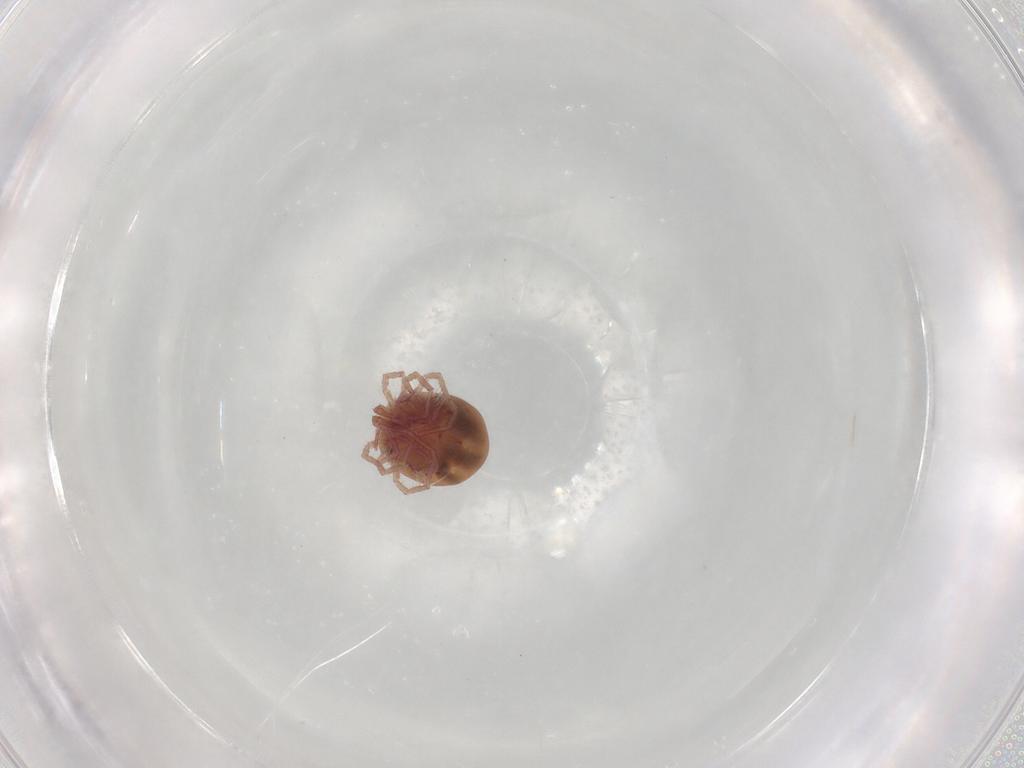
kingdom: Animalia
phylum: Arthropoda
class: Arachnida
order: Trombidiformes
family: Pionidae
